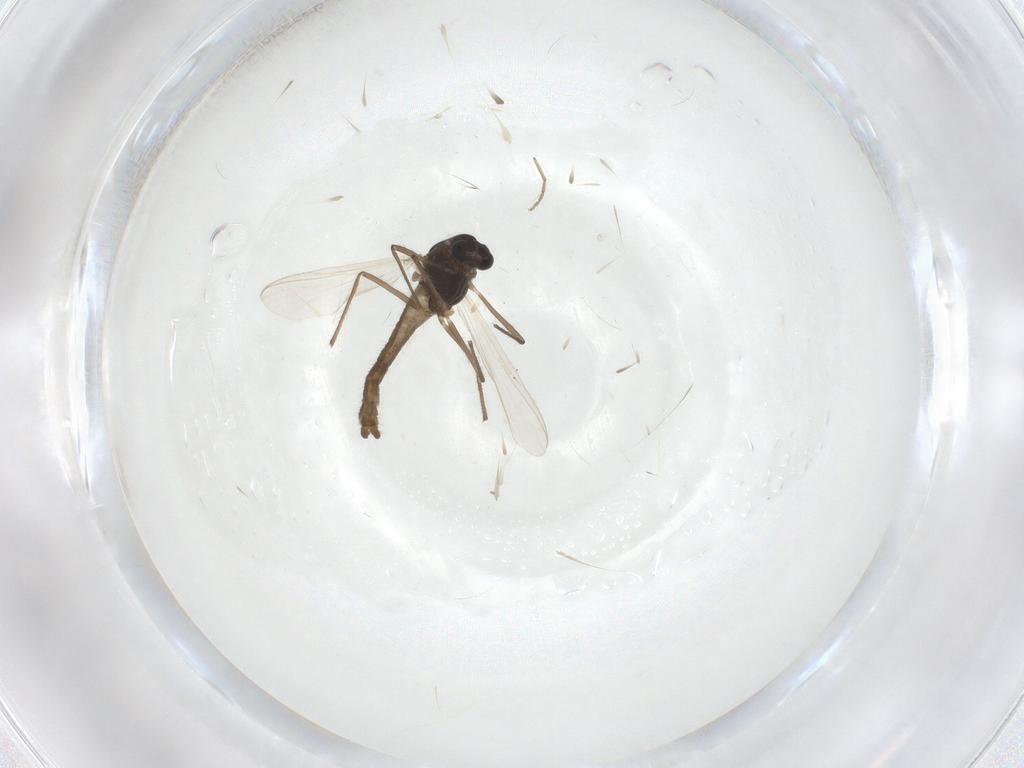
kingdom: Animalia
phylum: Arthropoda
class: Insecta
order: Diptera
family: Chironomidae
